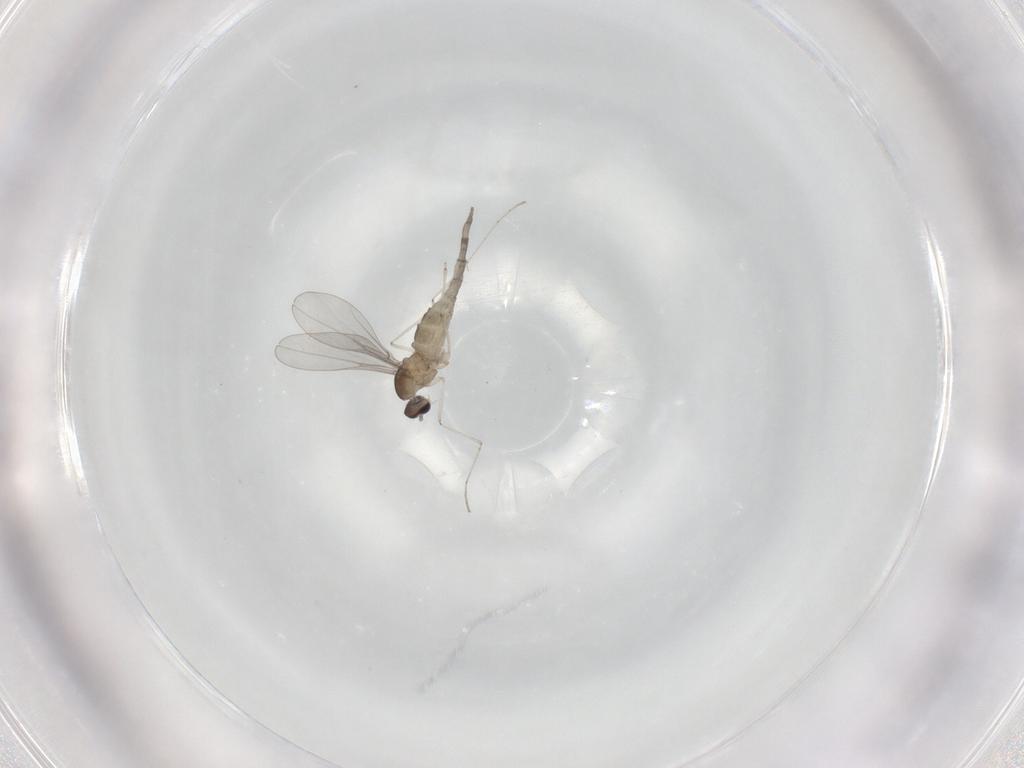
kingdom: Animalia
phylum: Arthropoda
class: Insecta
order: Diptera
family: Cecidomyiidae
